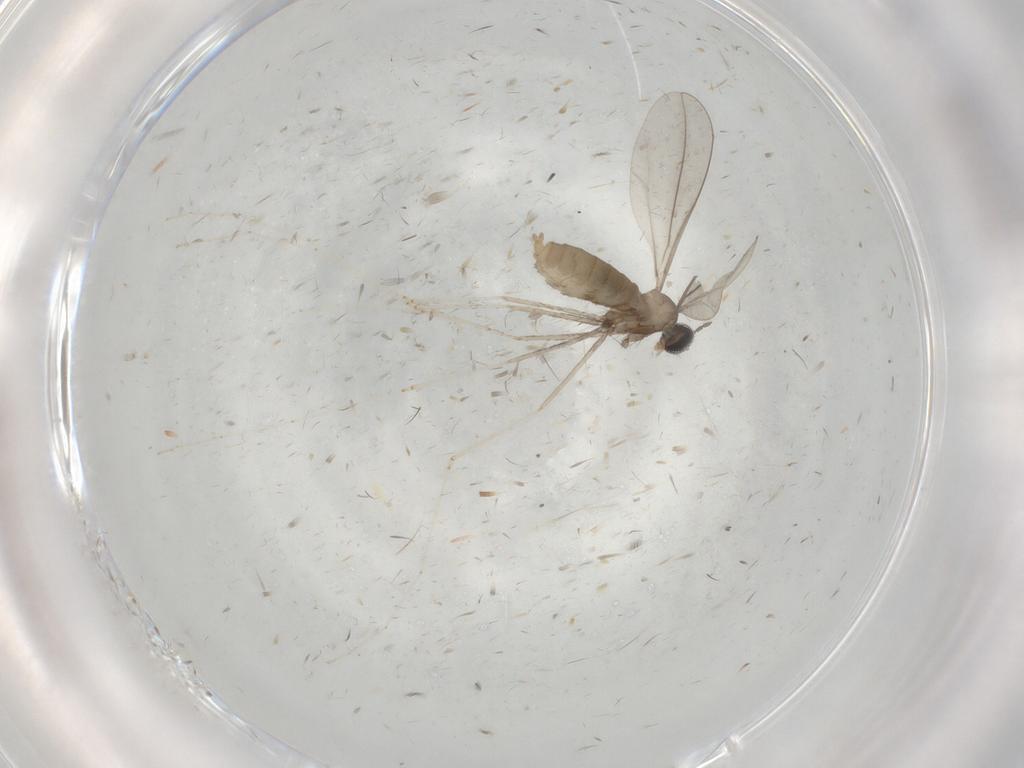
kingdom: Animalia
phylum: Arthropoda
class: Insecta
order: Diptera
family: Cecidomyiidae
